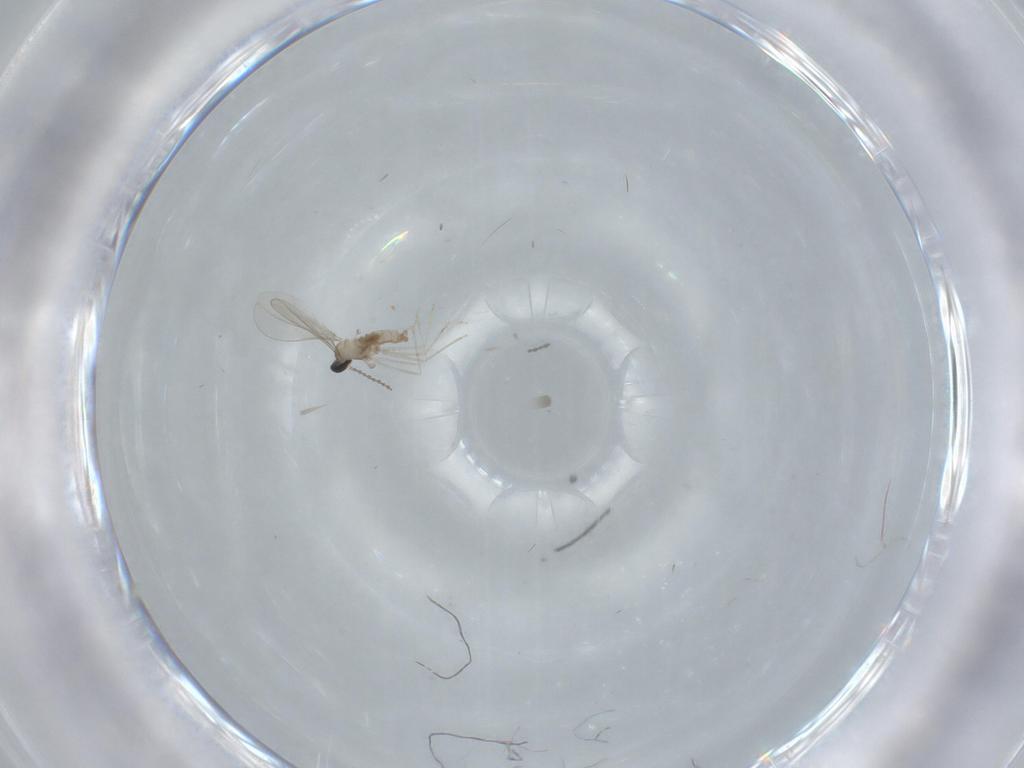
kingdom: Animalia
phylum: Arthropoda
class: Insecta
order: Diptera
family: Cecidomyiidae
